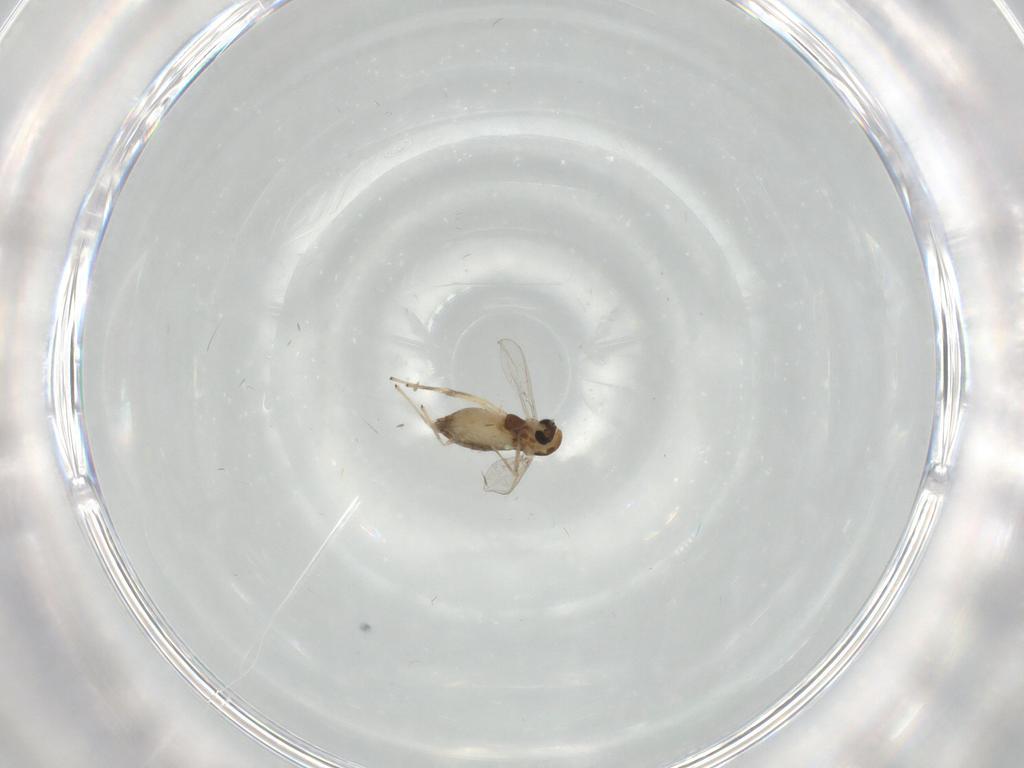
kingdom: Animalia
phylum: Arthropoda
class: Insecta
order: Diptera
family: Chironomidae
